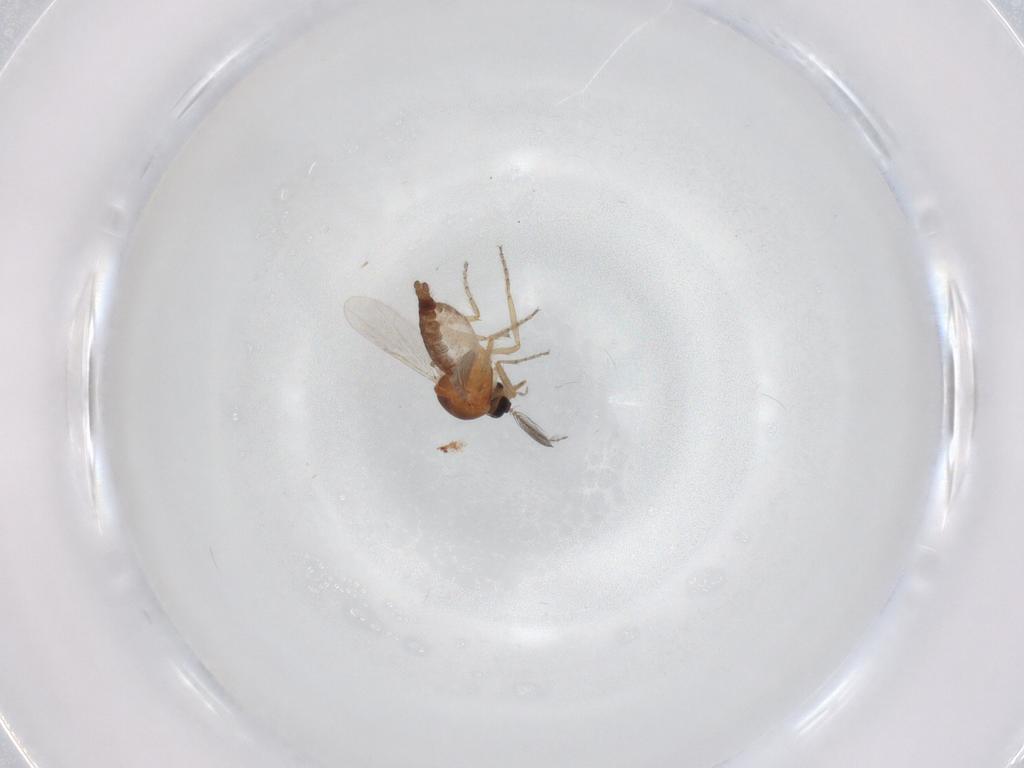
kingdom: Animalia
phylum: Arthropoda
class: Insecta
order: Diptera
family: Ceratopogonidae
